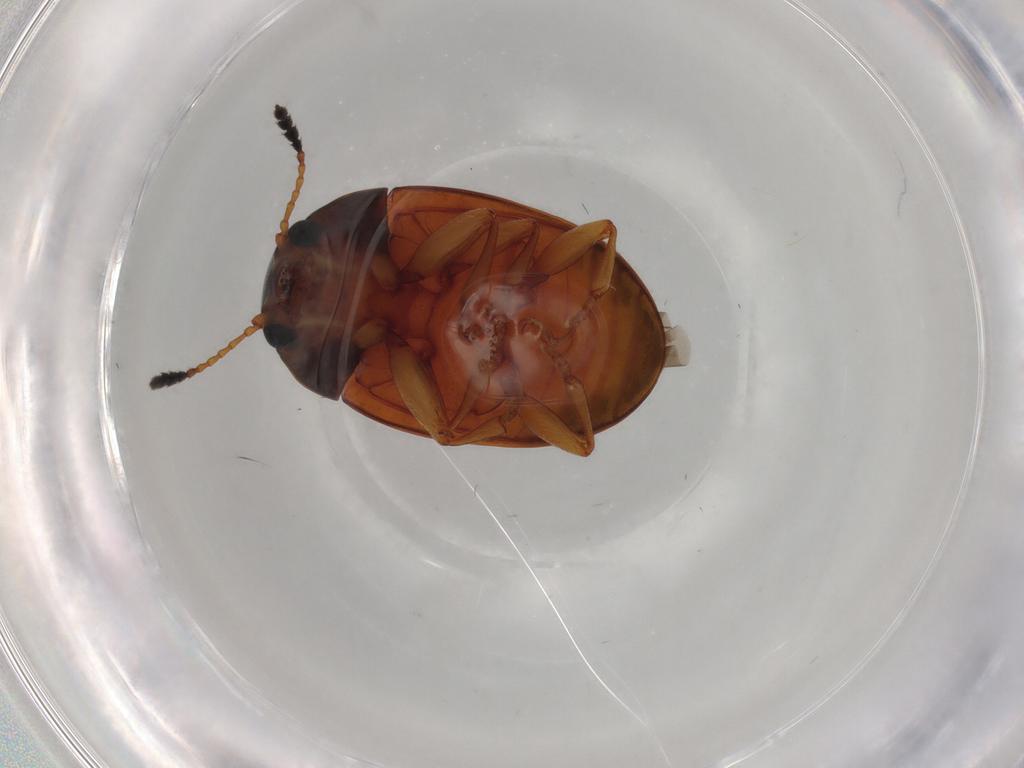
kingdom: Animalia
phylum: Arthropoda
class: Insecta
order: Coleoptera
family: Erotylidae
